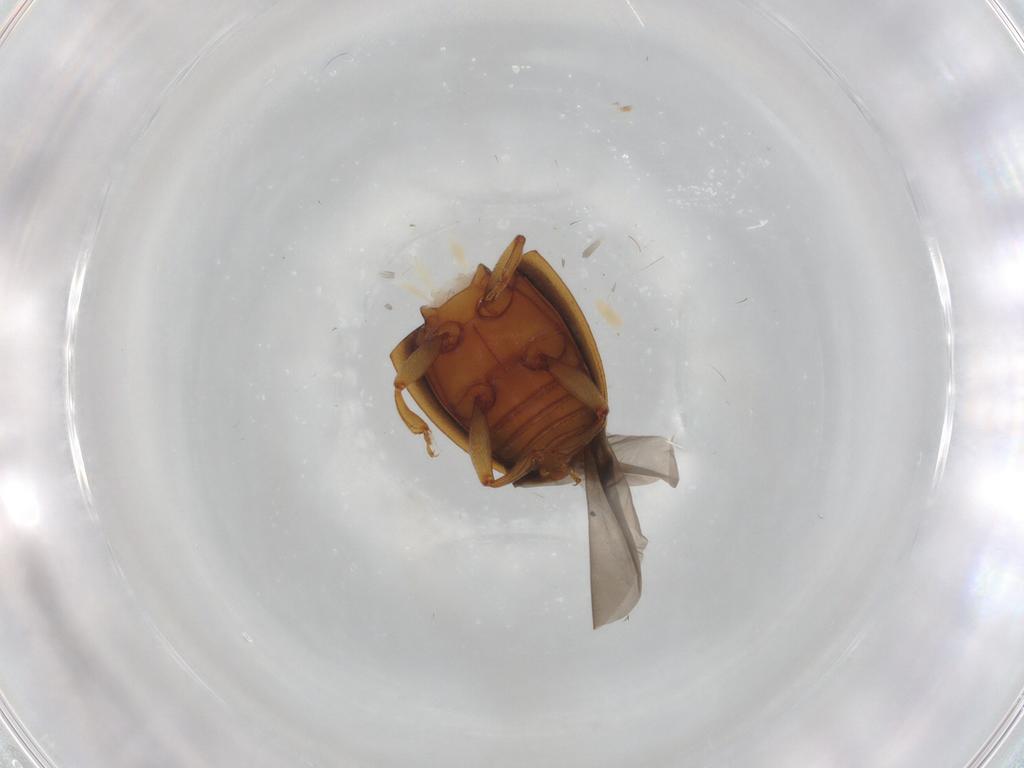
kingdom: Animalia
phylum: Arthropoda
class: Insecta
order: Coleoptera
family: Nitidulidae
